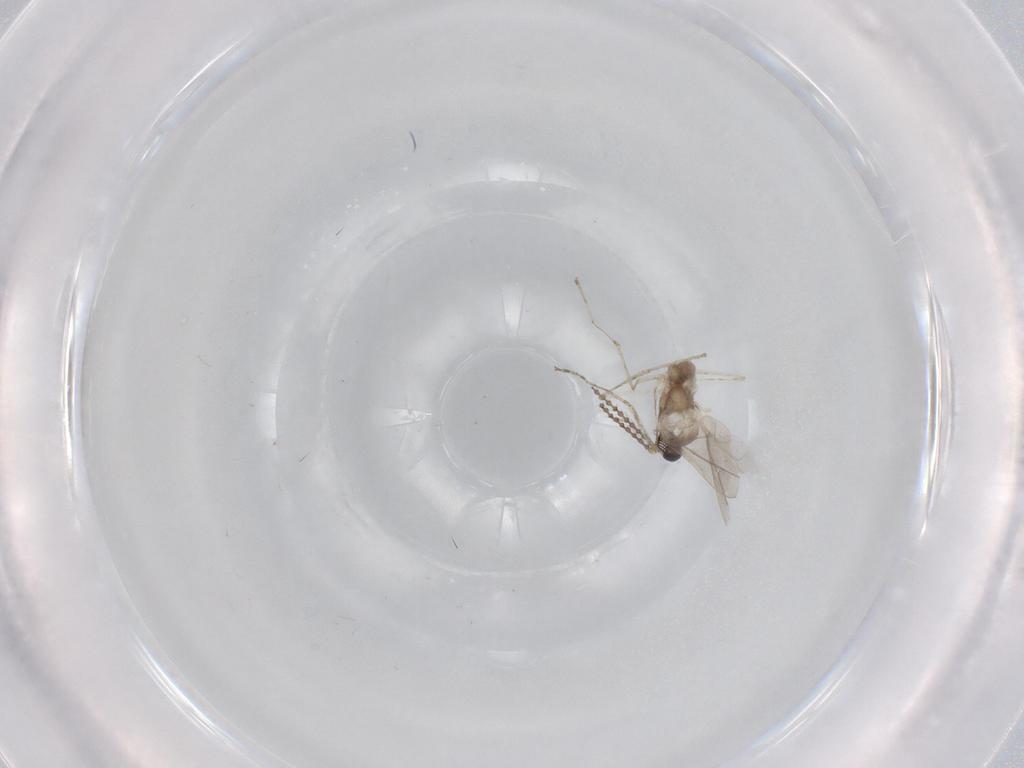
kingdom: Animalia
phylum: Arthropoda
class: Insecta
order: Diptera
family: Cecidomyiidae
